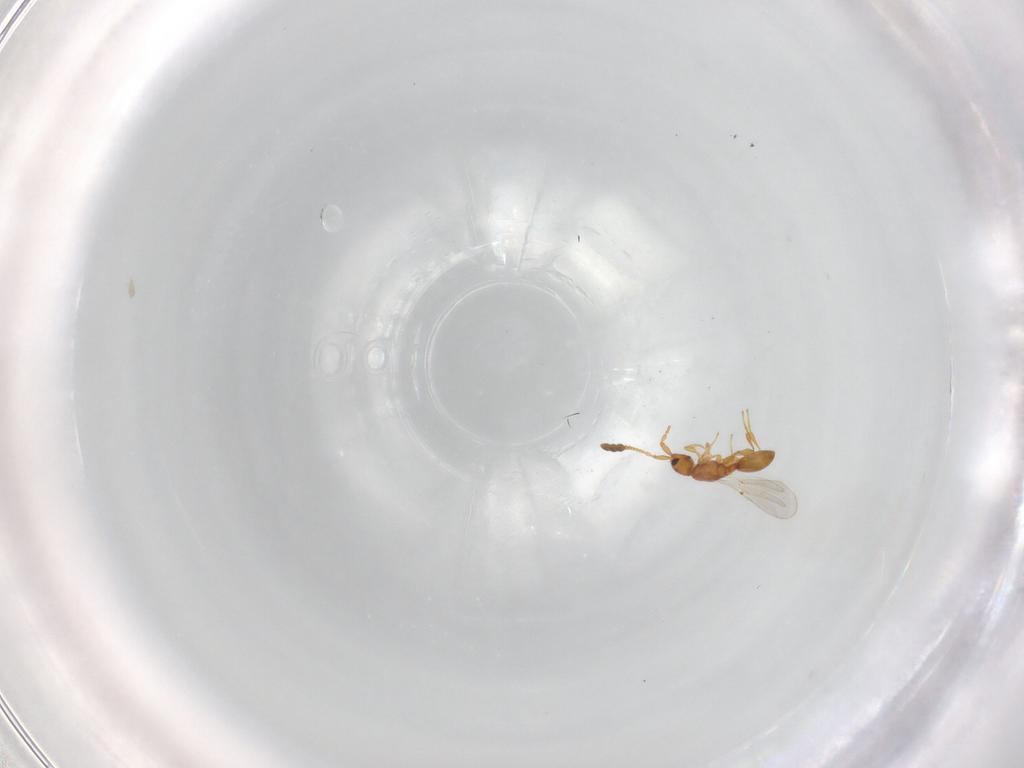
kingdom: Animalia
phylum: Arthropoda
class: Insecta
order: Hymenoptera
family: Diapriidae
